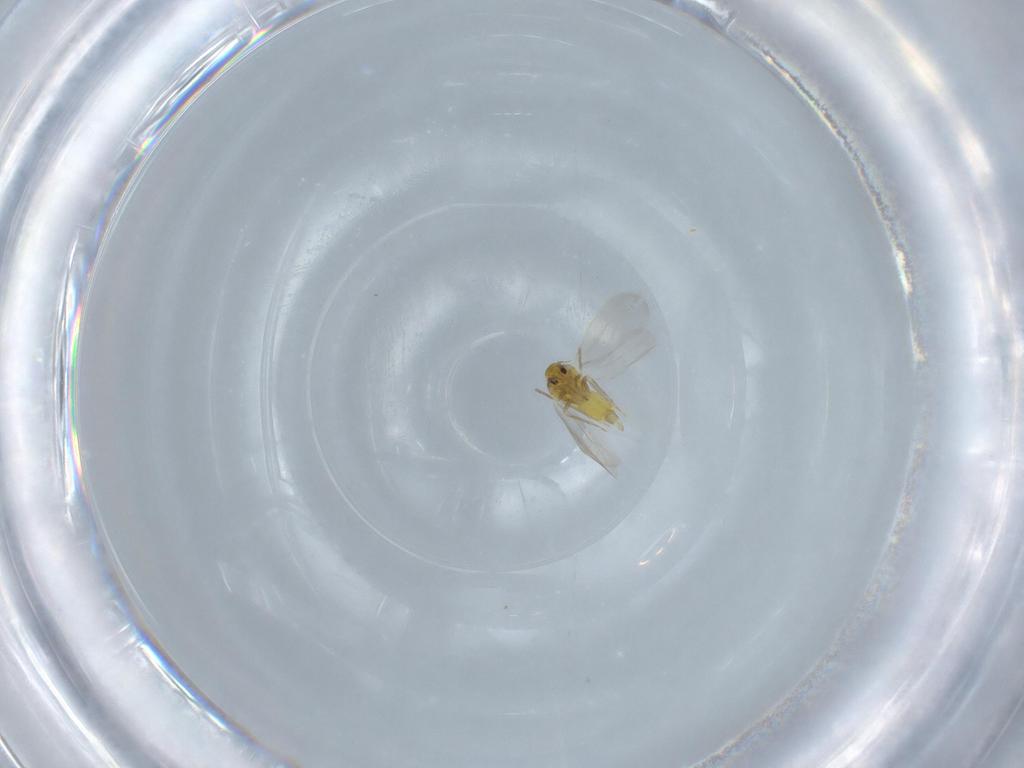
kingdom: Animalia
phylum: Arthropoda
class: Insecta
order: Hemiptera
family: Aleyrodidae
